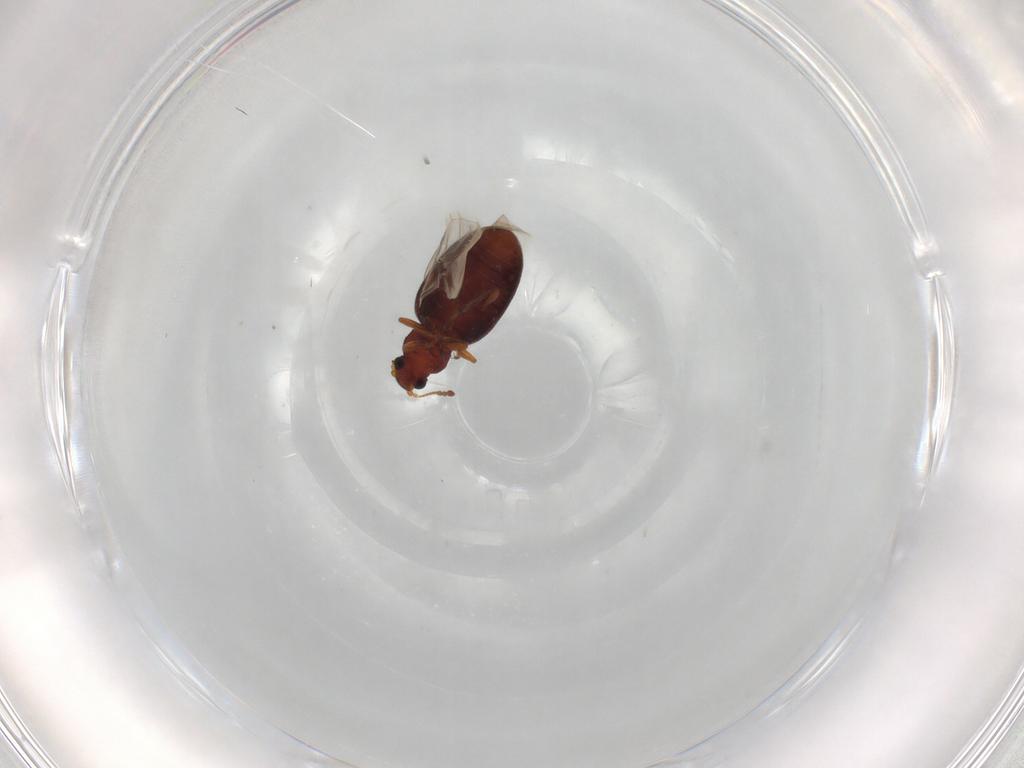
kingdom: Animalia
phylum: Arthropoda
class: Insecta
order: Coleoptera
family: Latridiidae
